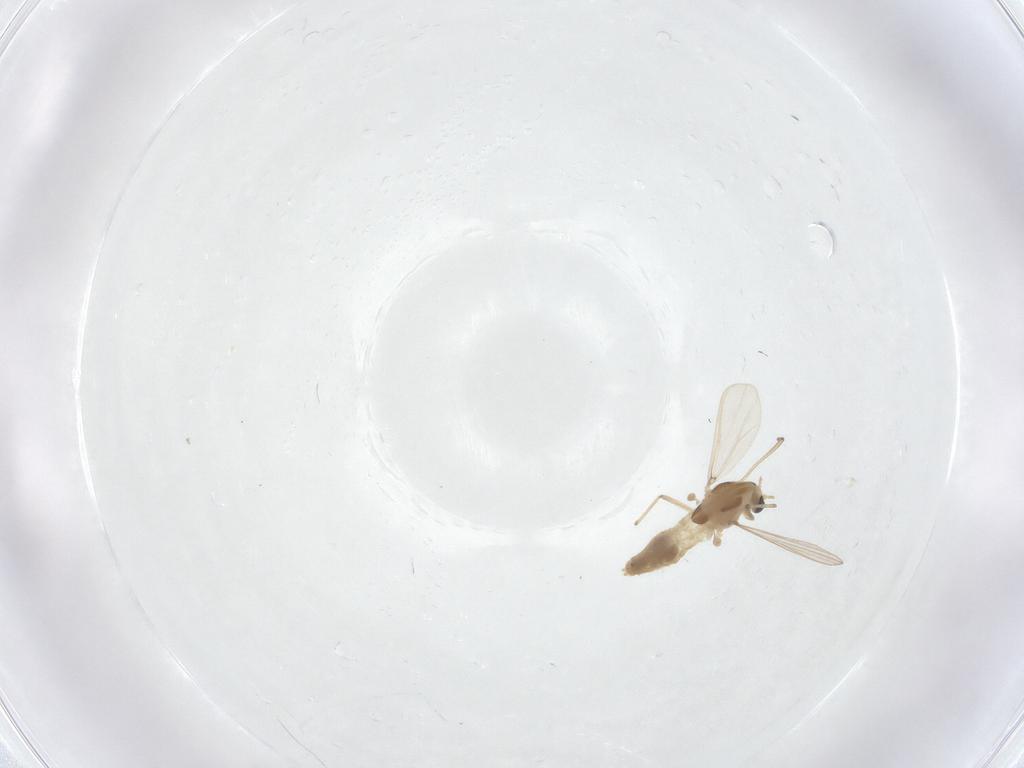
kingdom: Animalia
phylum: Arthropoda
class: Insecta
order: Diptera
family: Chironomidae
